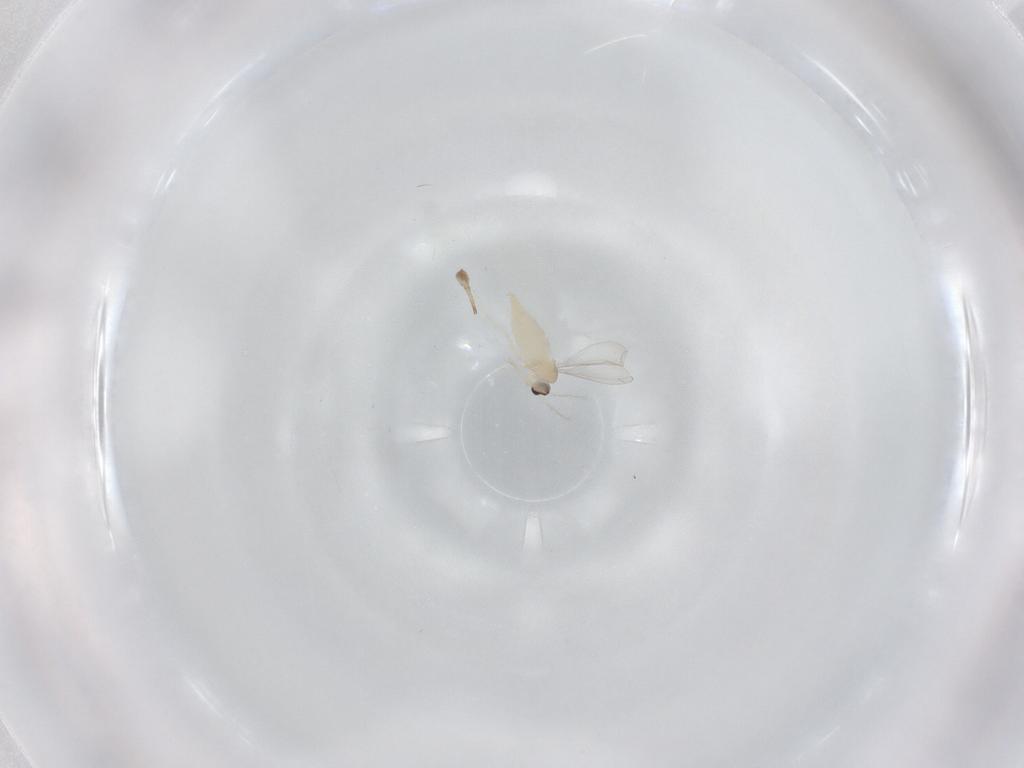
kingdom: Animalia
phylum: Arthropoda
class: Insecta
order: Diptera
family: Cecidomyiidae
